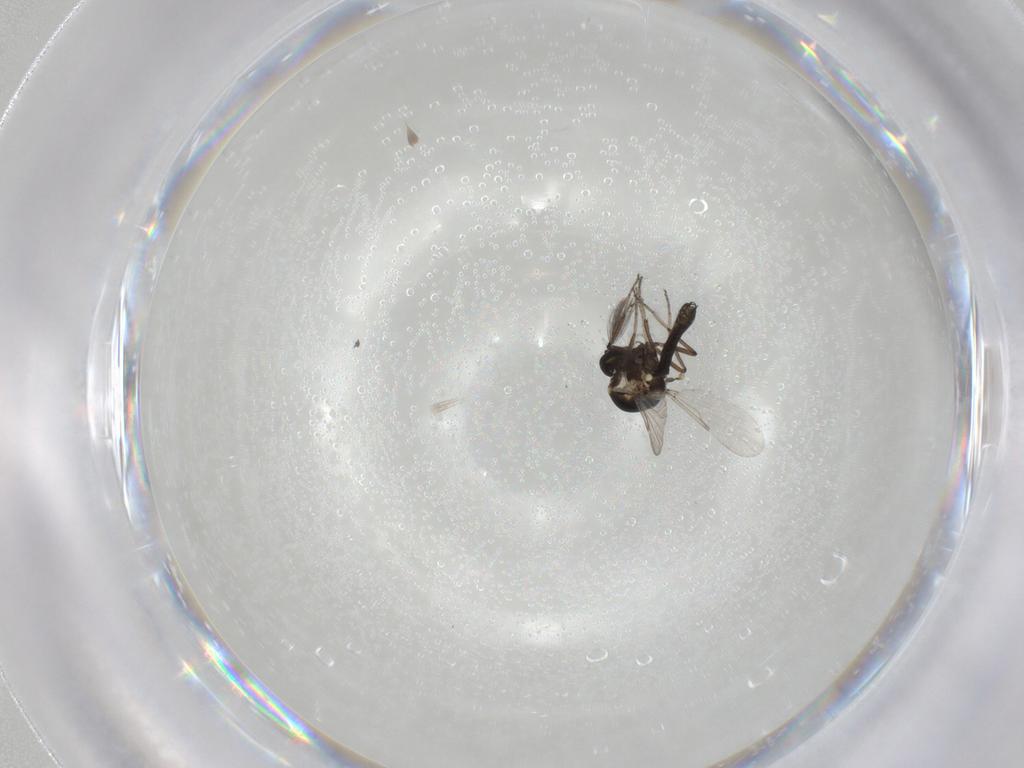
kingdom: Animalia
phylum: Arthropoda
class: Insecta
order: Diptera
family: Ceratopogonidae
